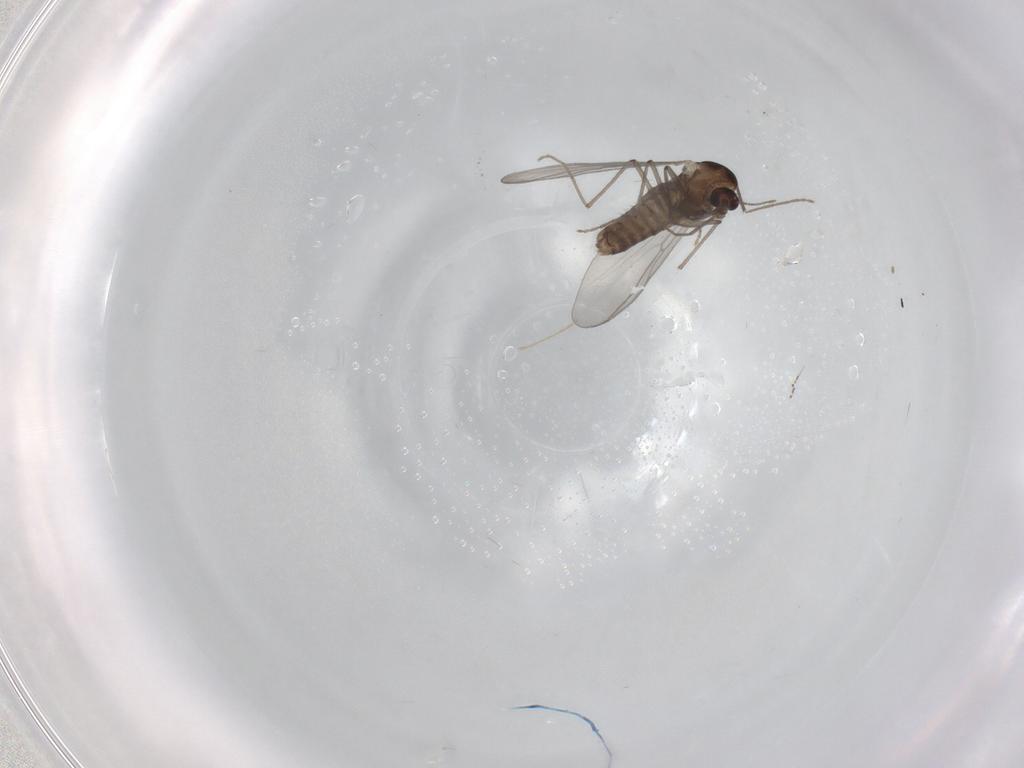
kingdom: Animalia
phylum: Arthropoda
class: Insecta
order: Diptera
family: Chironomidae
